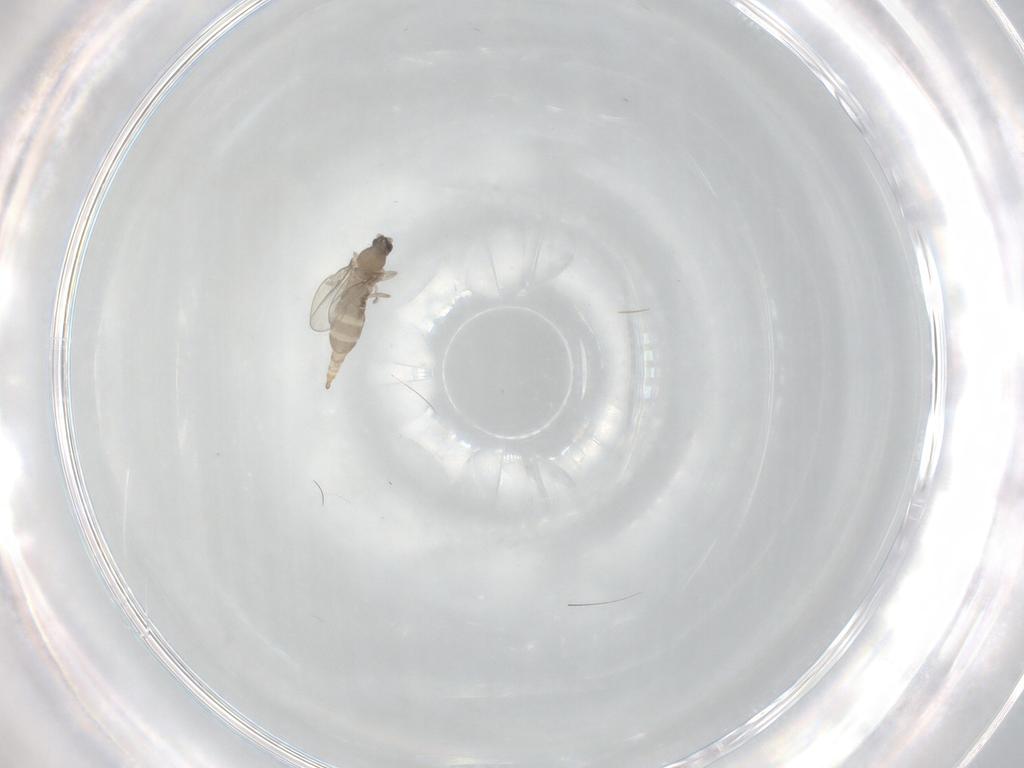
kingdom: Animalia
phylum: Arthropoda
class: Insecta
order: Diptera
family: Cecidomyiidae
